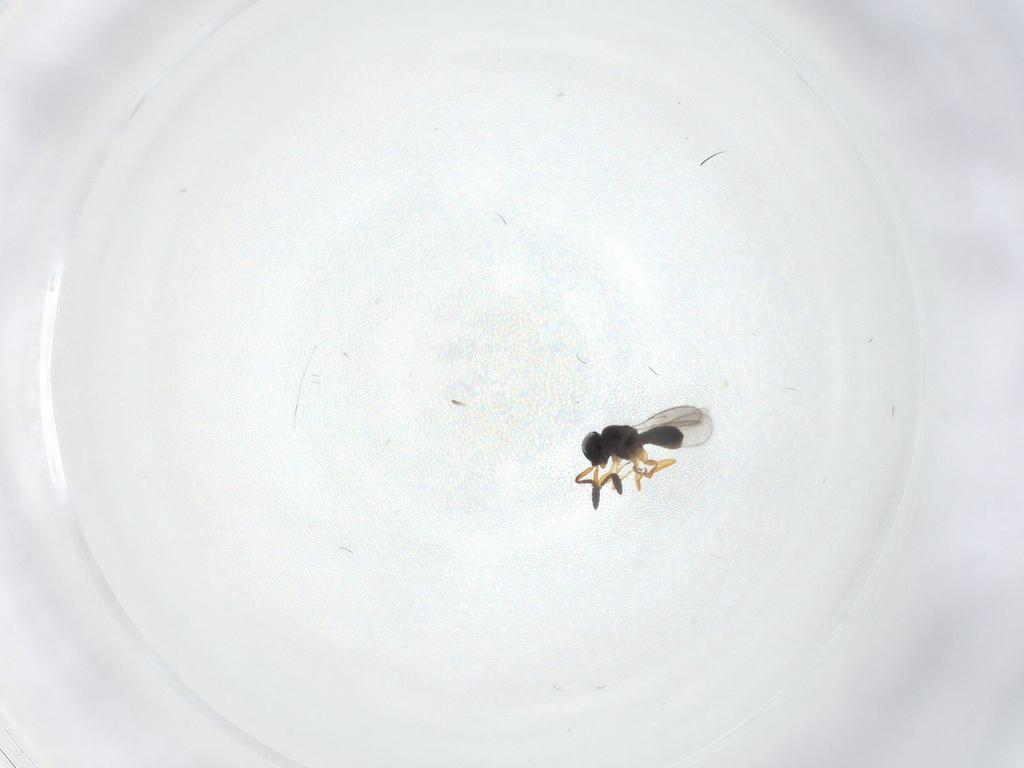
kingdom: Animalia
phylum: Arthropoda
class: Insecta
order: Hymenoptera
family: Scelionidae
